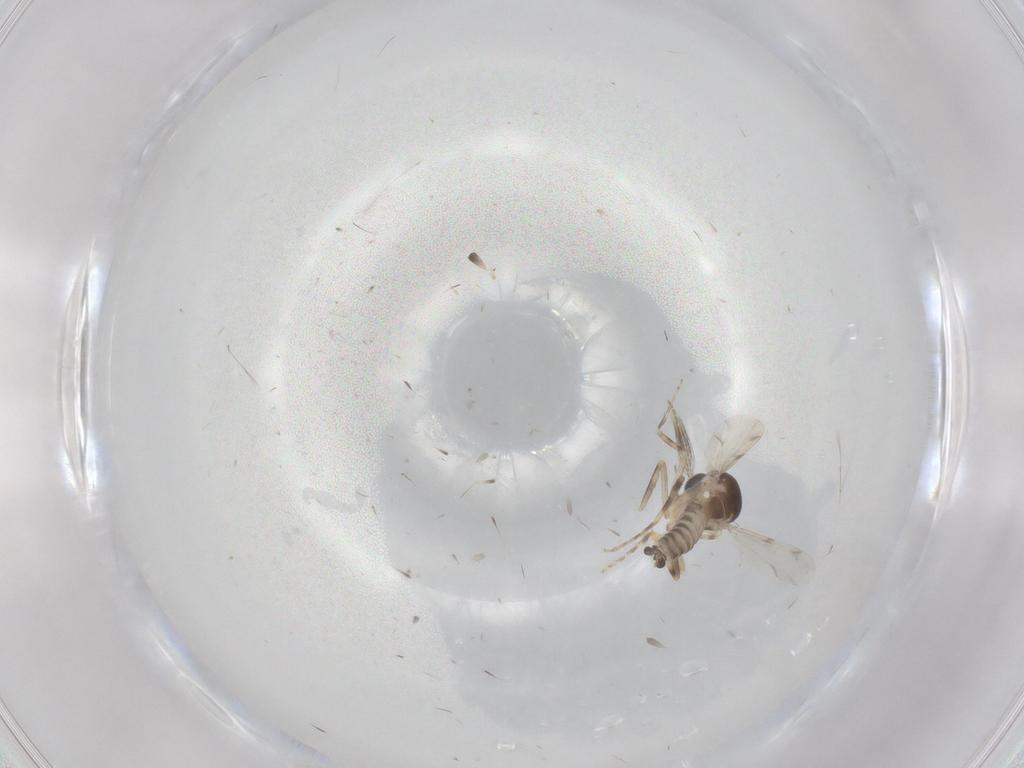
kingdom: Animalia
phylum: Arthropoda
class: Insecta
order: Diptera
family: Ceratopogonidae
